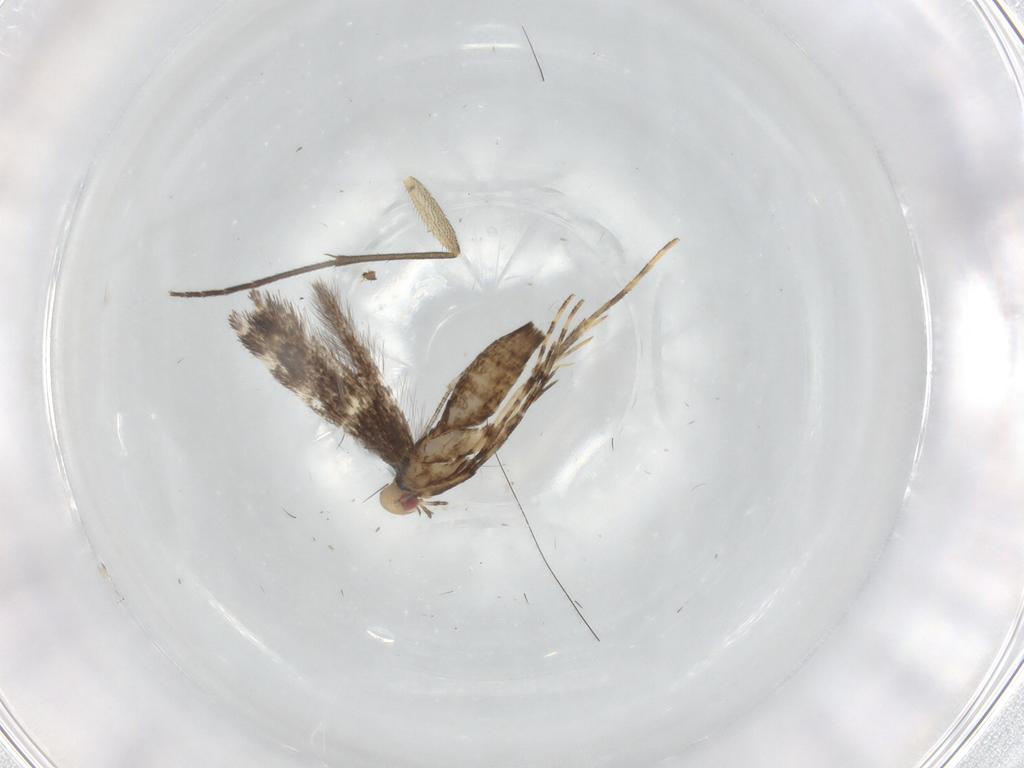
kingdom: Animalia
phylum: Arthropoda
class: Insecta
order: Lepidoptera
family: Gracillariidae
